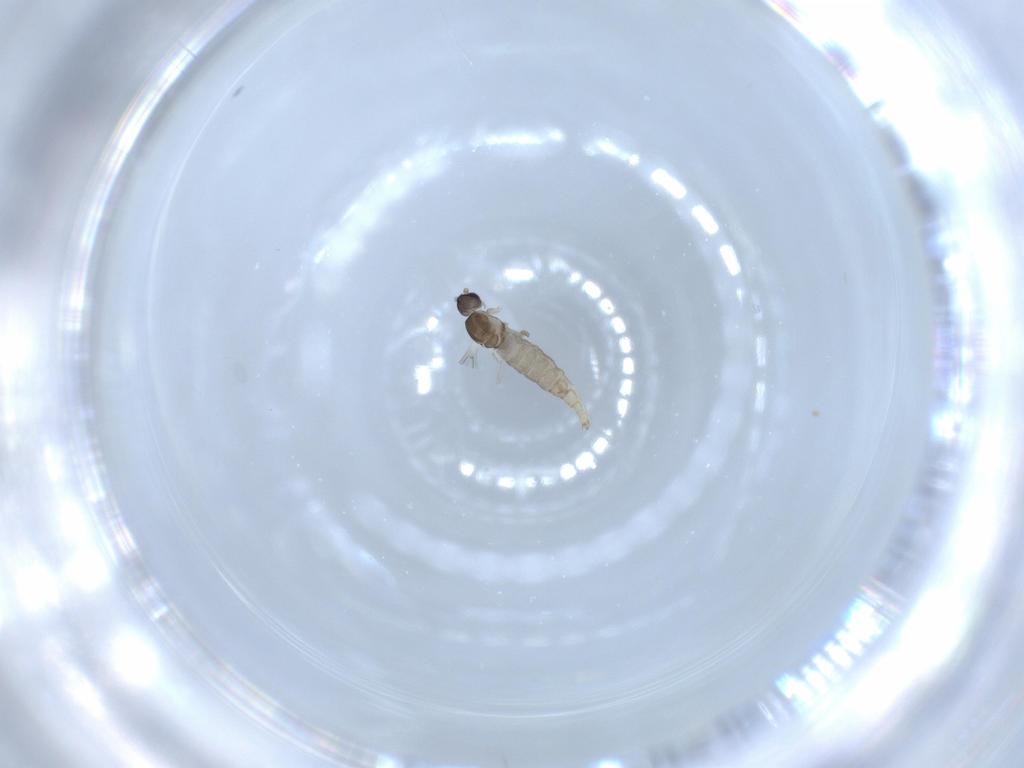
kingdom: Animalia
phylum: Arthropoda
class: Insecta
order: Diptera
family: Cecidomyiidae
